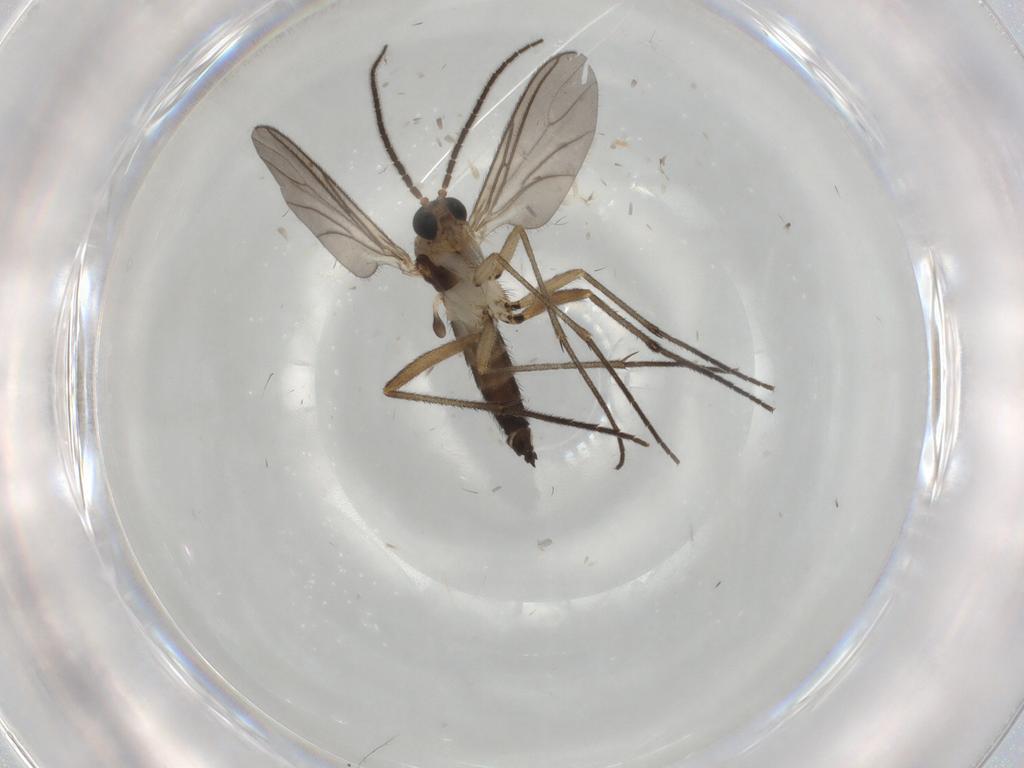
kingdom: Animalia
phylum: Arthropoda
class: Insecta
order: Diptera
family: Sciaridae
